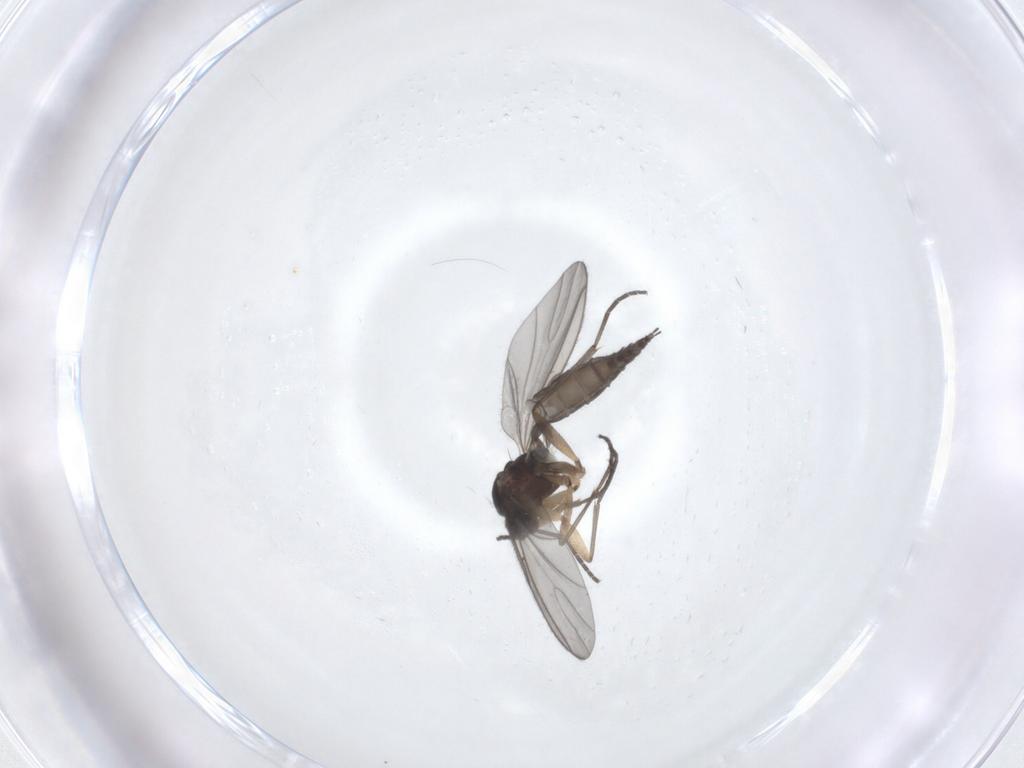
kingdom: Animalia
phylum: Arthropoda
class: Insecta
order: Diptera
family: Sciaridae
